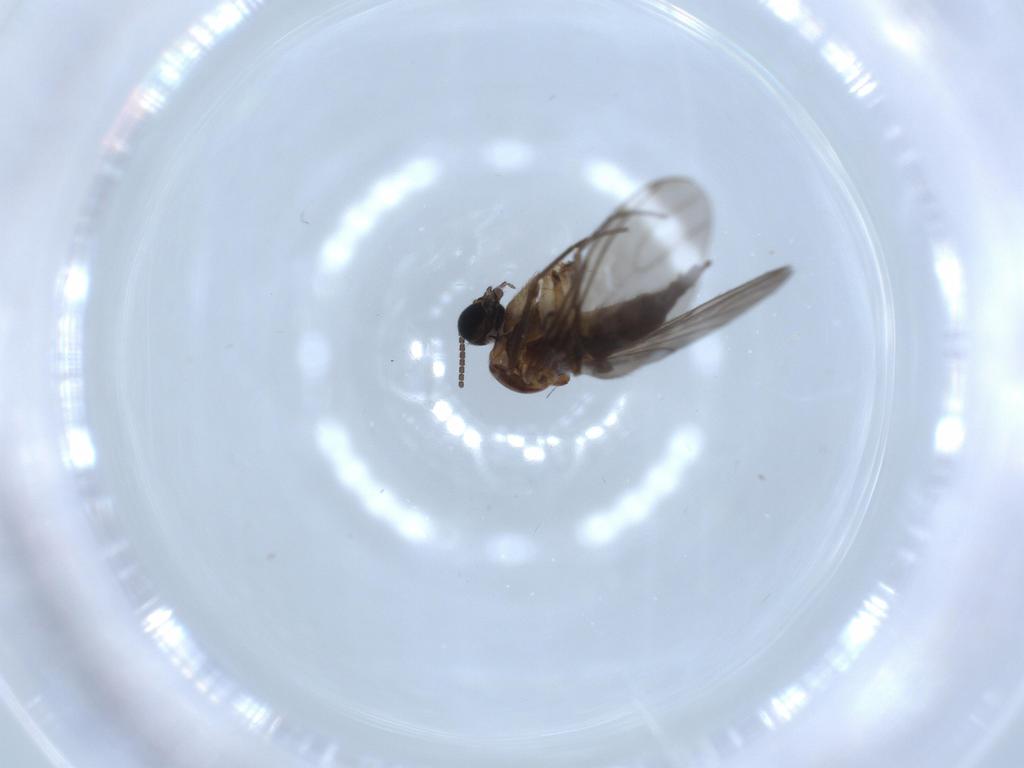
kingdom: Animalia
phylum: Arthropoda
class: Insecta
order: Diptera
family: Sciaridae
